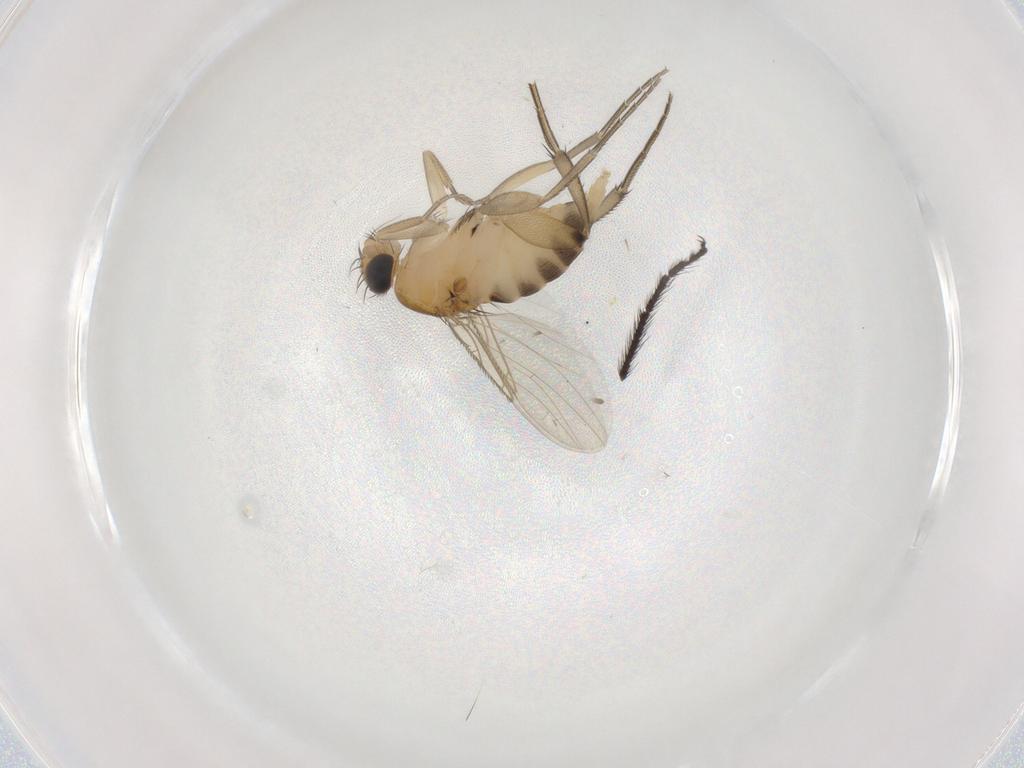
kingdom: Animalia
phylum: Arthropoda
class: Insecta
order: Diptera
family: Phoridae
